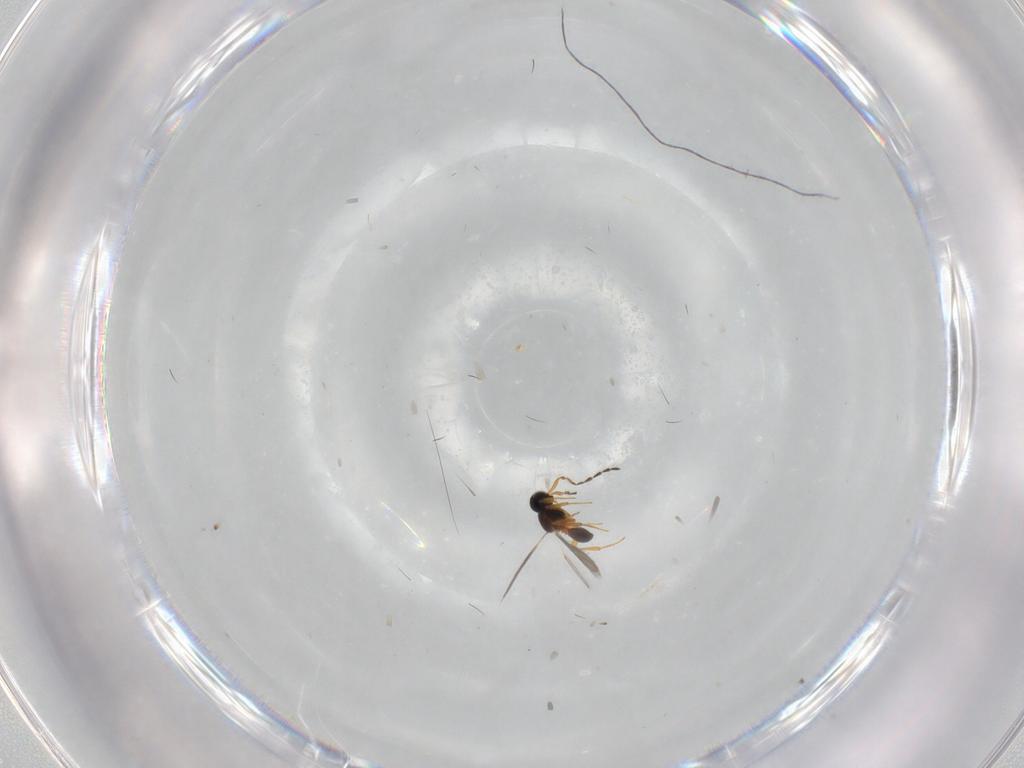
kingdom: Animalia
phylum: Arthropoda
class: Insecta
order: Hymenoptera
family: Platygastridae
